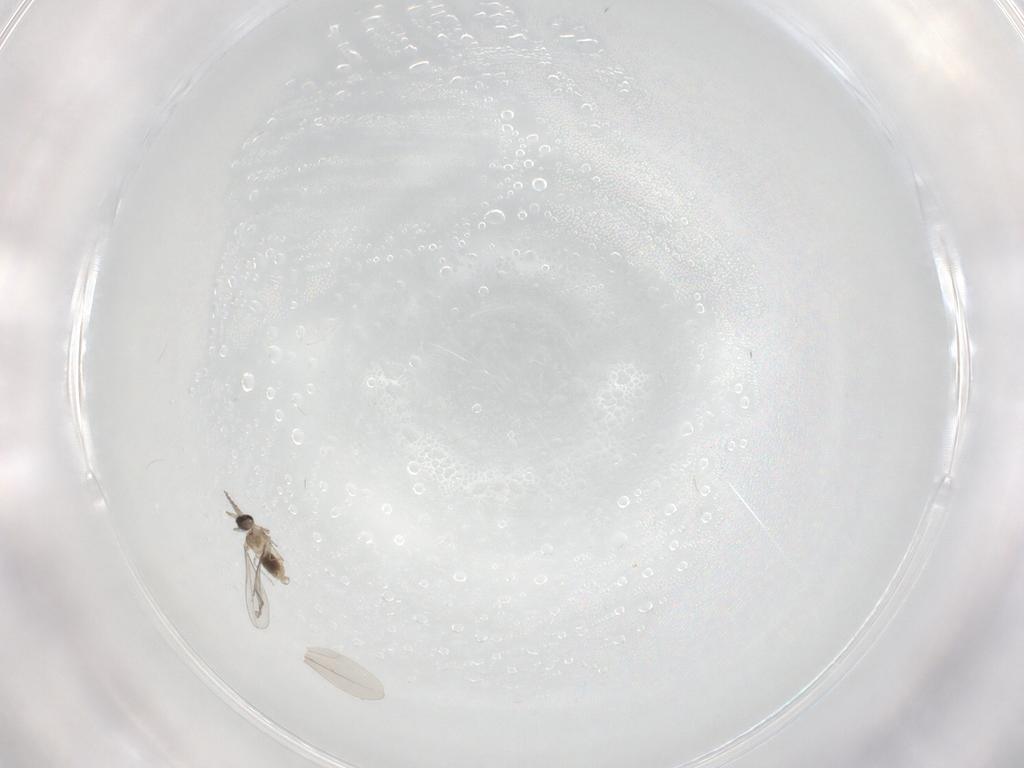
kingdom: Animalia
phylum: Arthropoda
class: Insecta
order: Diptera
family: Cecidomyiidae
